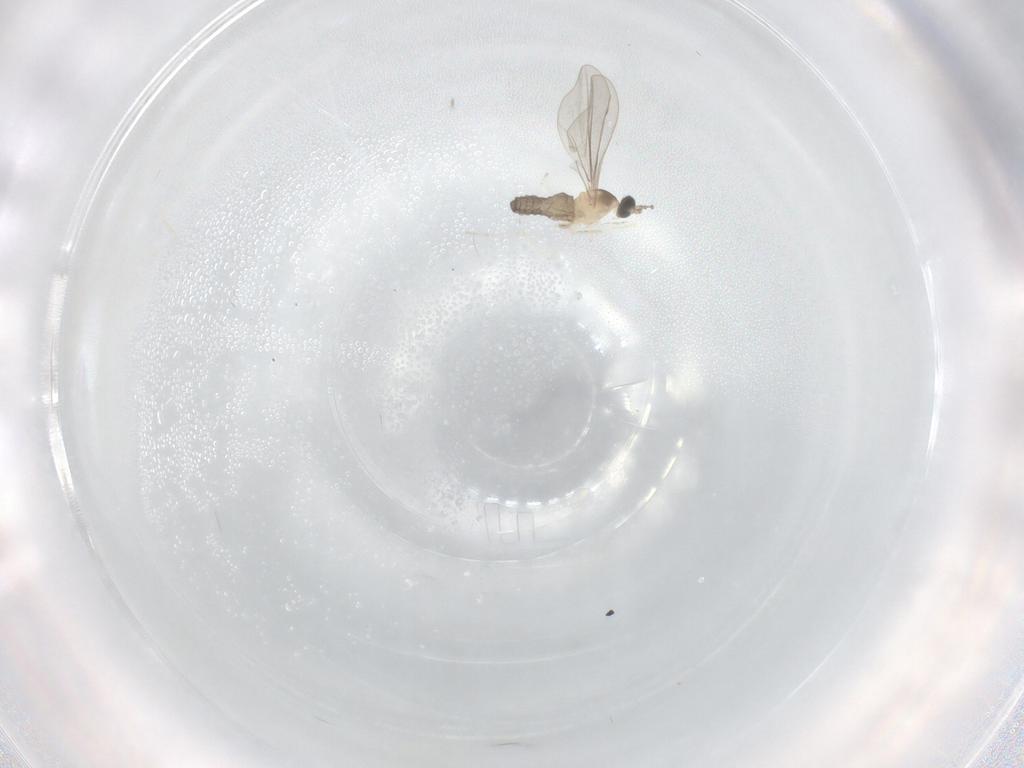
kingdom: Animalia
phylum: Arthropoda
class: Insecta
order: Diptera
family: Cecidomyiidae
